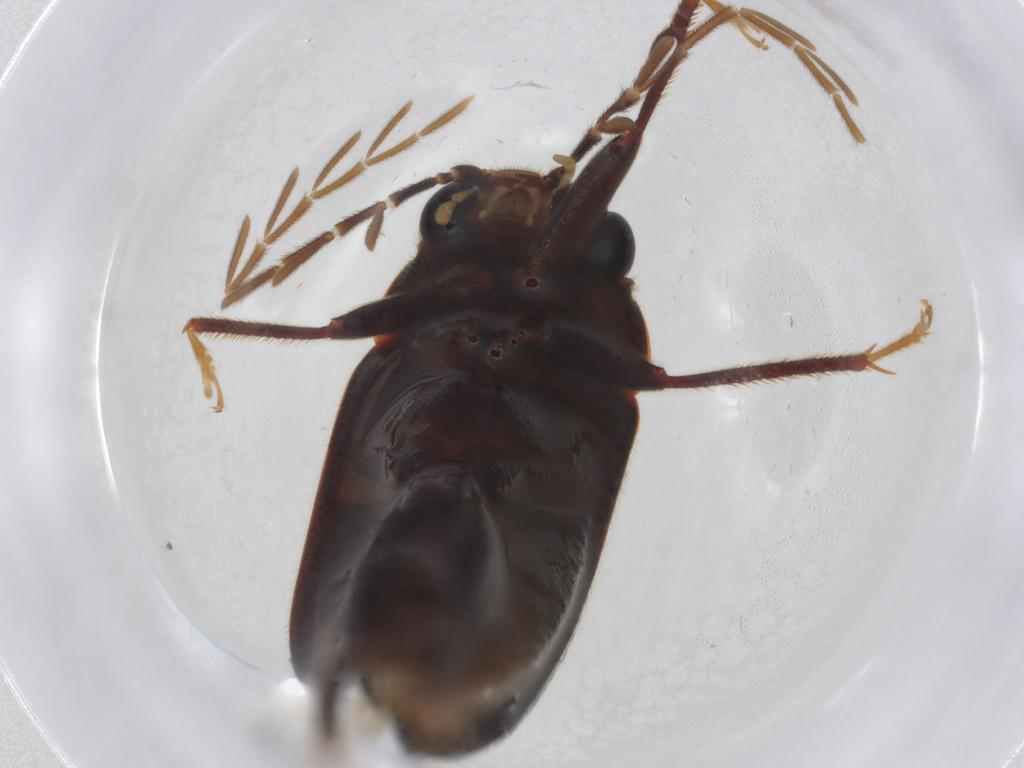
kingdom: Animalia
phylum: Arthropoda
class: Insecta
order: Coleoptera
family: Ptilodactylidae
